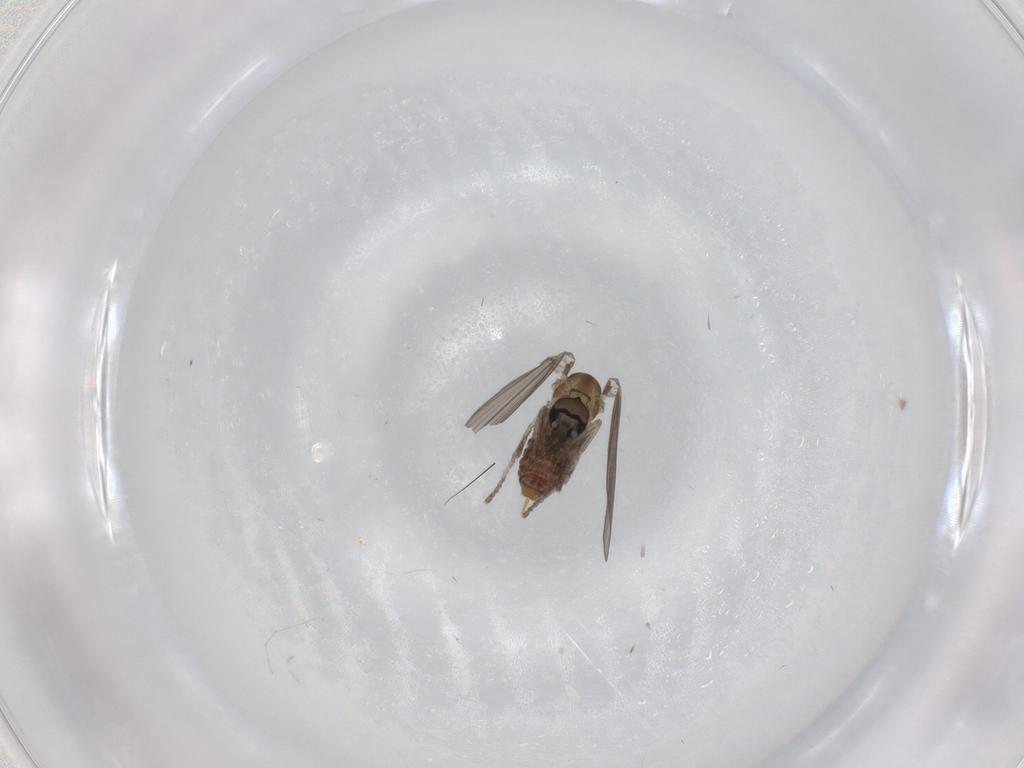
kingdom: Animalia
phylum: Arthropoda
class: Insecta
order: Diptera
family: Psychodidae
